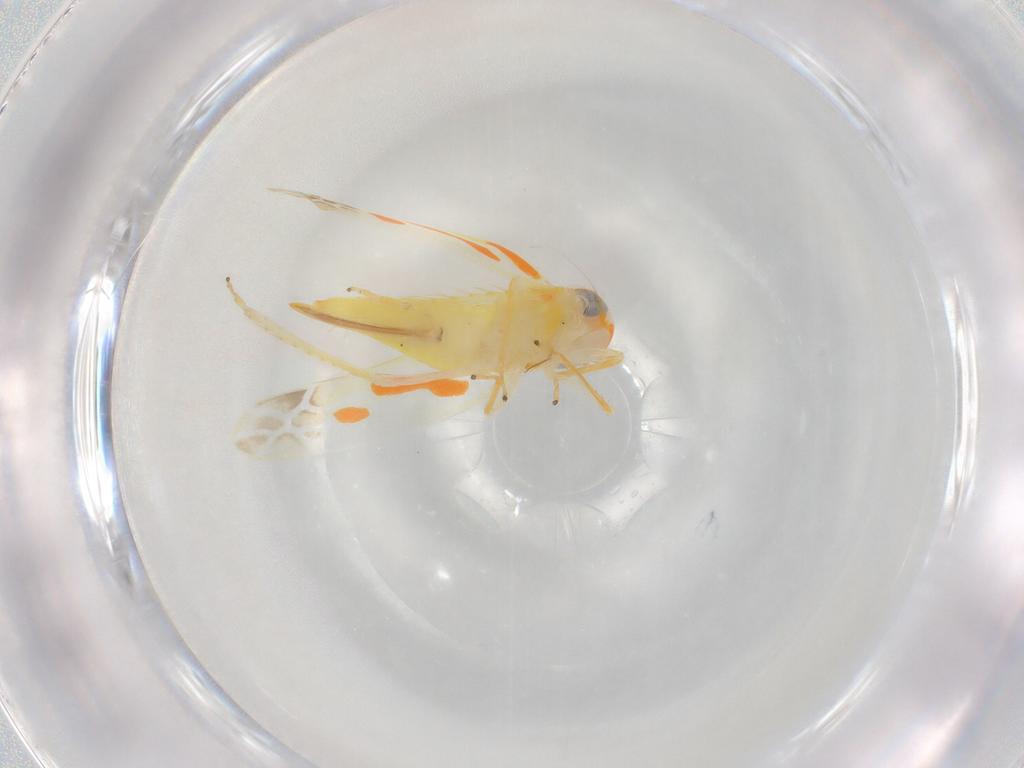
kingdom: Animalia
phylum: Arthropoda
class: Insecta
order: Hemiptera
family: Cicadellidae
